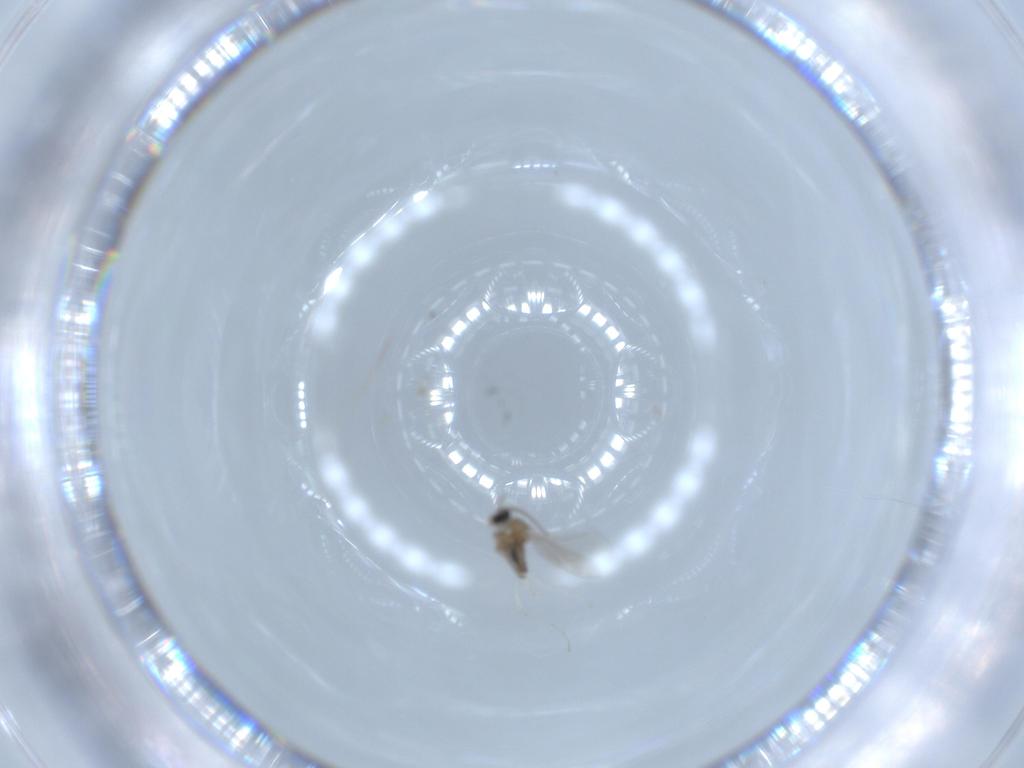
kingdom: Animalia
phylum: Arthropoda
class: Insecta
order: Diptera
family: Cecidomyiidae
